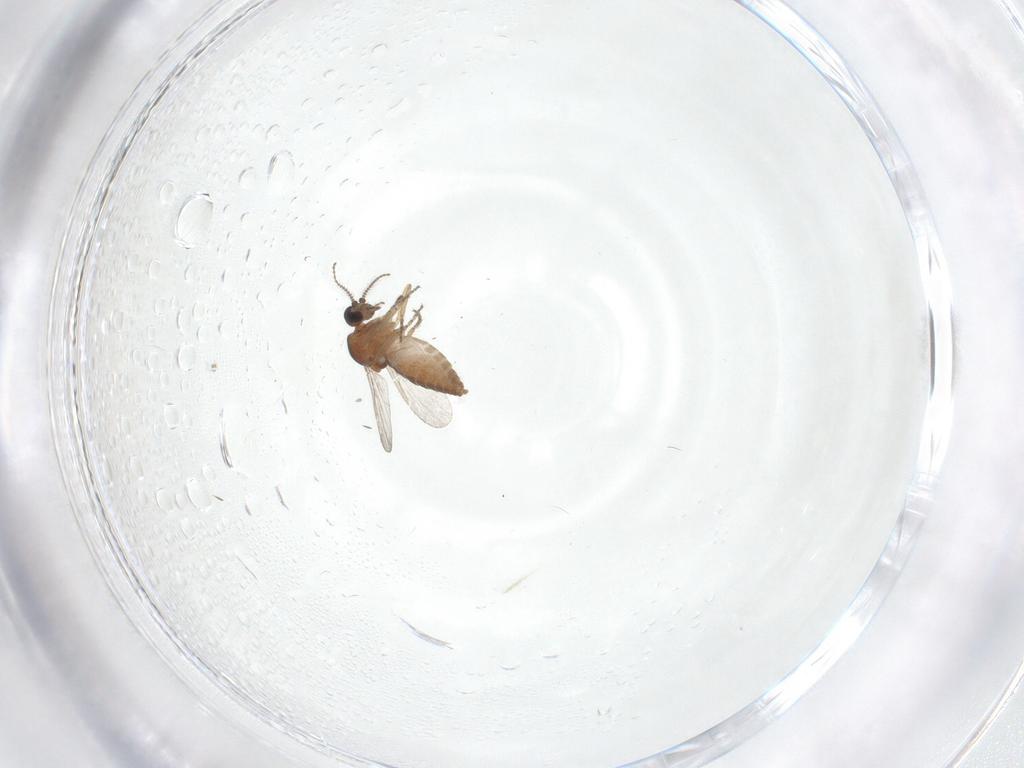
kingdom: Animalia
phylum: Arthropoda
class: Insecta
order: Diptera
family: Ceratopogonidae
